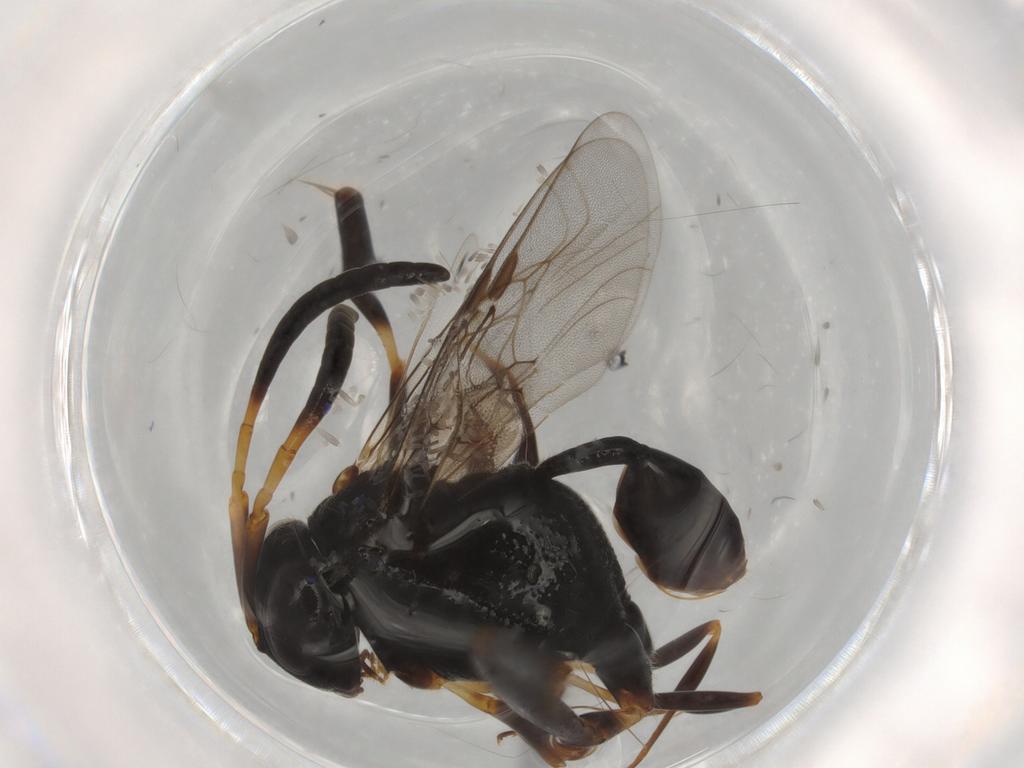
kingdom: Animalia
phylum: Arthropoda
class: Insecta
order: Hymenoptera
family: Evaniidae
